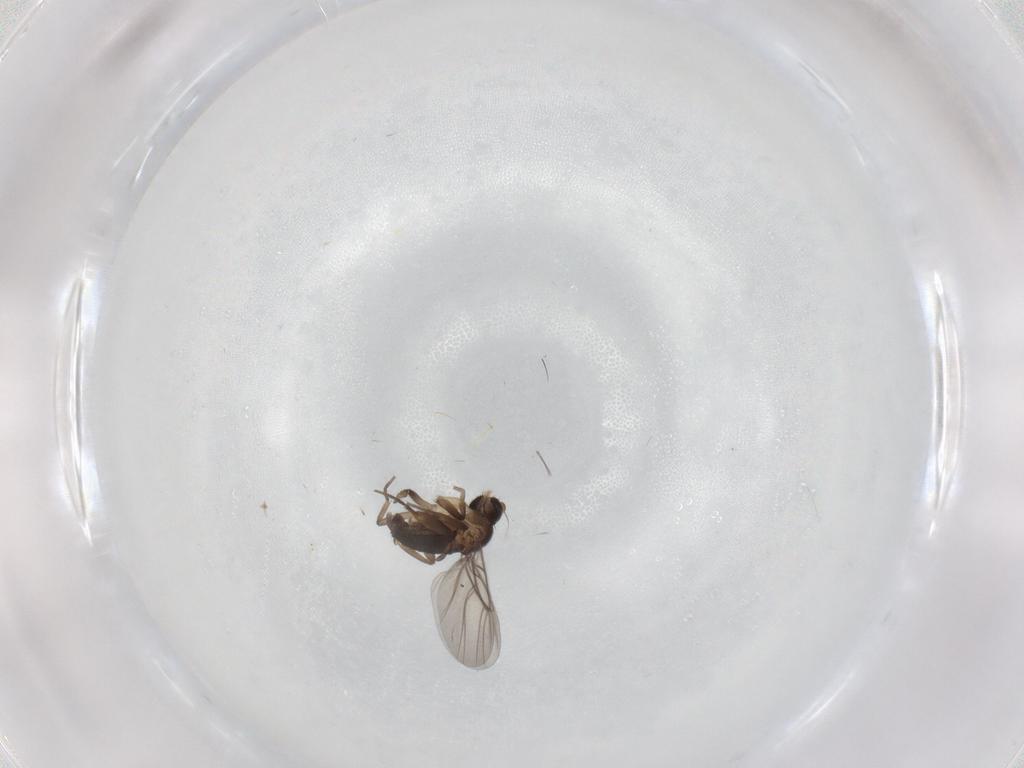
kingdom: Animalia
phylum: Arthropoda
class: Insecta
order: Diptera
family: Phoridae
